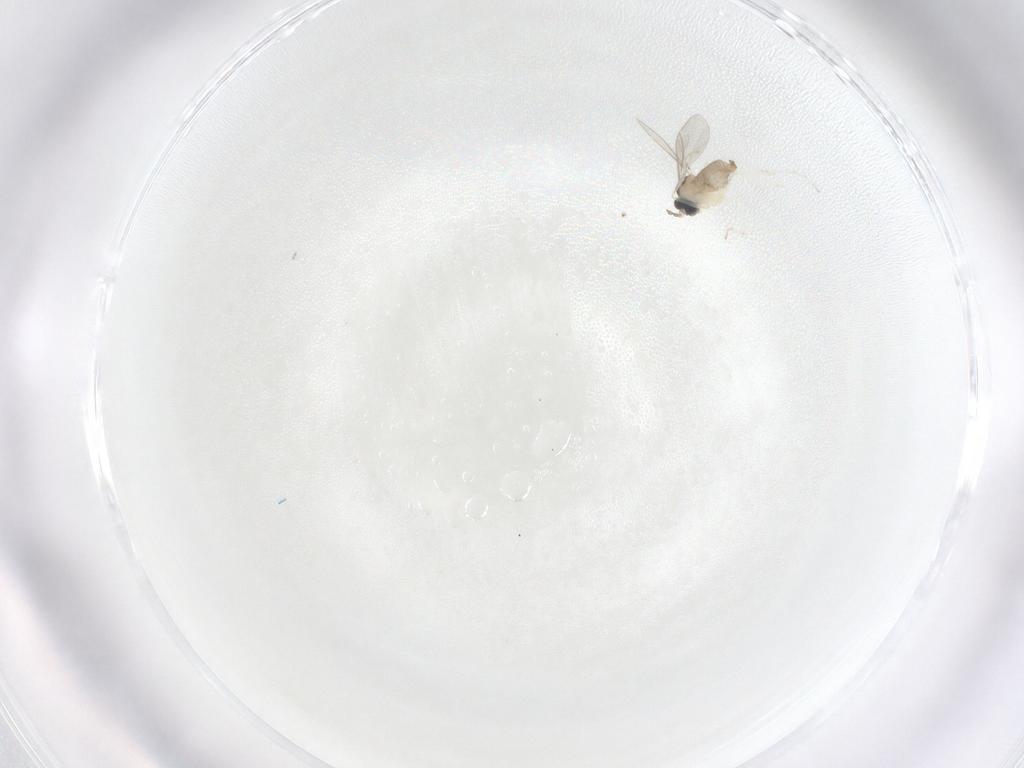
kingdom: Animalia
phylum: Arthropoda
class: Insecta
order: Diptera
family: Cecidomyiidae
